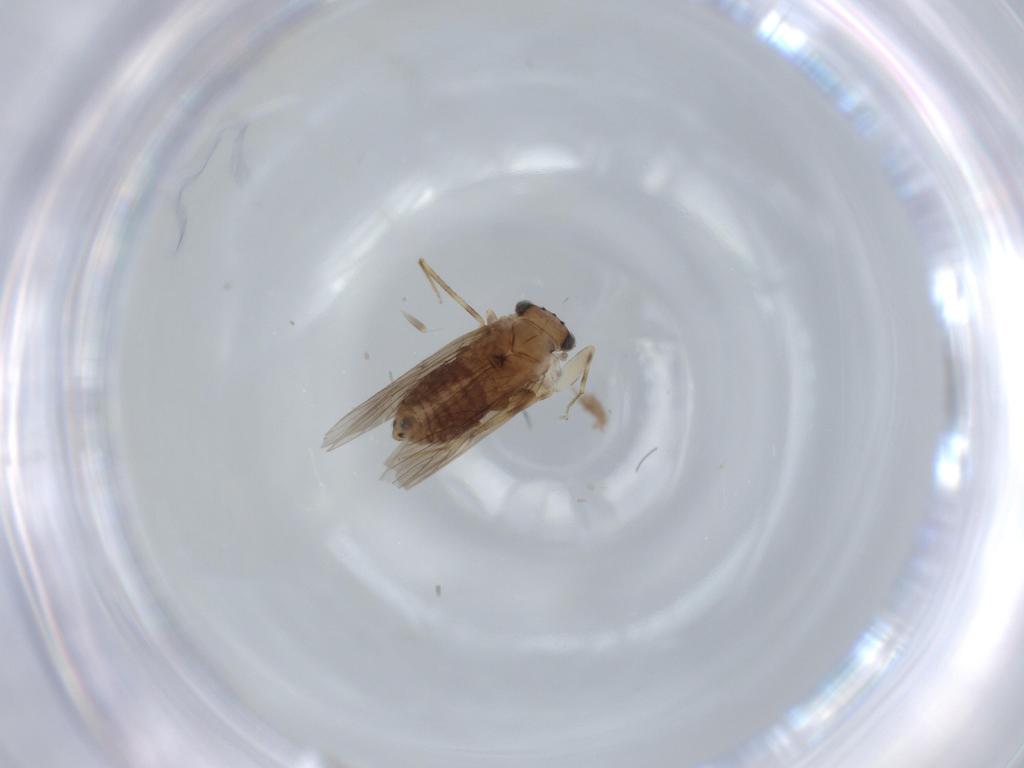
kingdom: Animalia
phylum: Arthropoda
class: Insecta
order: Psocodea
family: Lepidopsocidae
